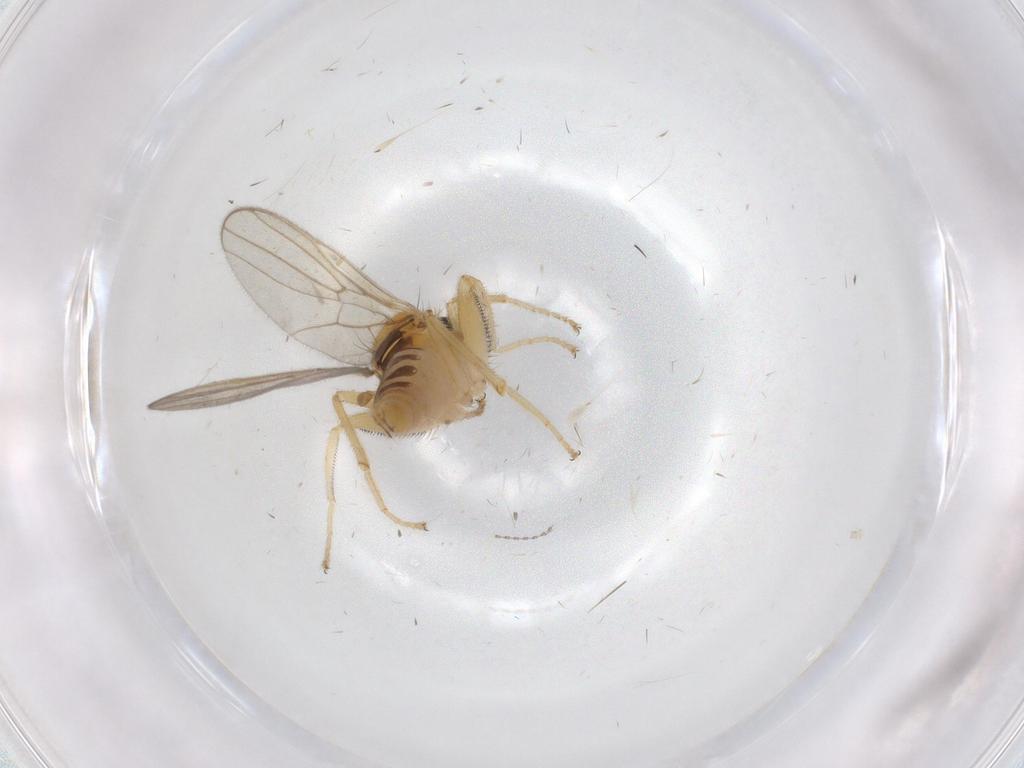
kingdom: Animalia
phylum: Arthropoda
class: Insecta
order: Diptera
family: Hybotidae
